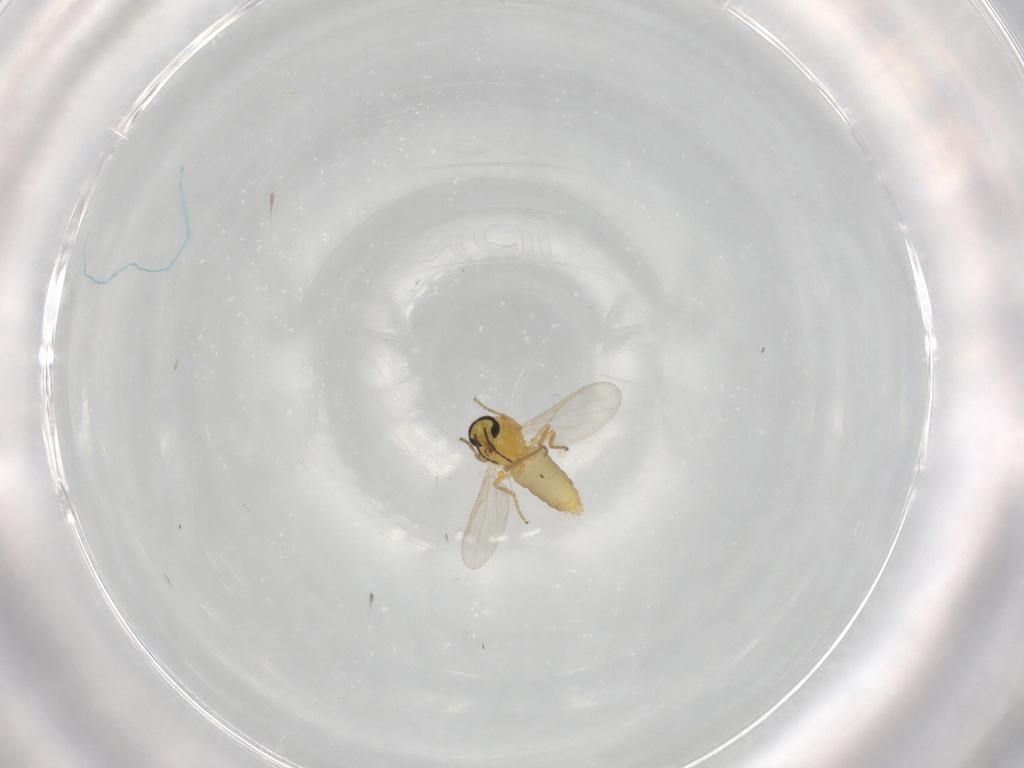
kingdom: Animalia
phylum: Arthropoda
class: Insecta
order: Diptera
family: Ceratopogonidae
